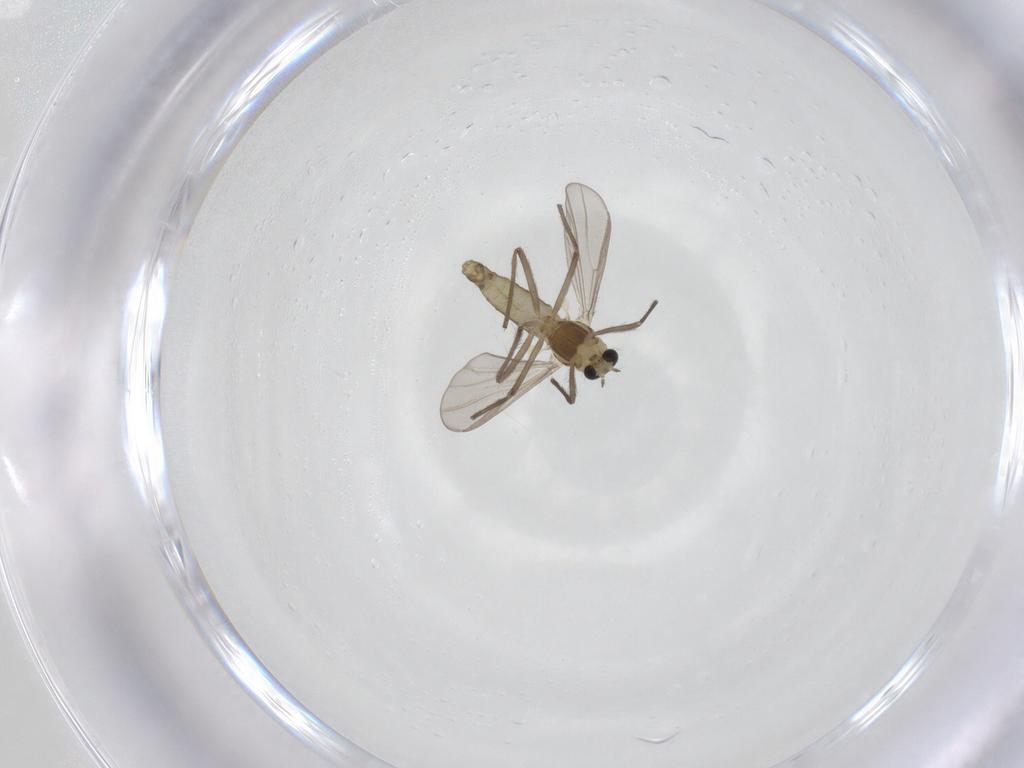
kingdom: Animalia
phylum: Arthropoda
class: Insecta
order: Diptera
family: Chironomidae
